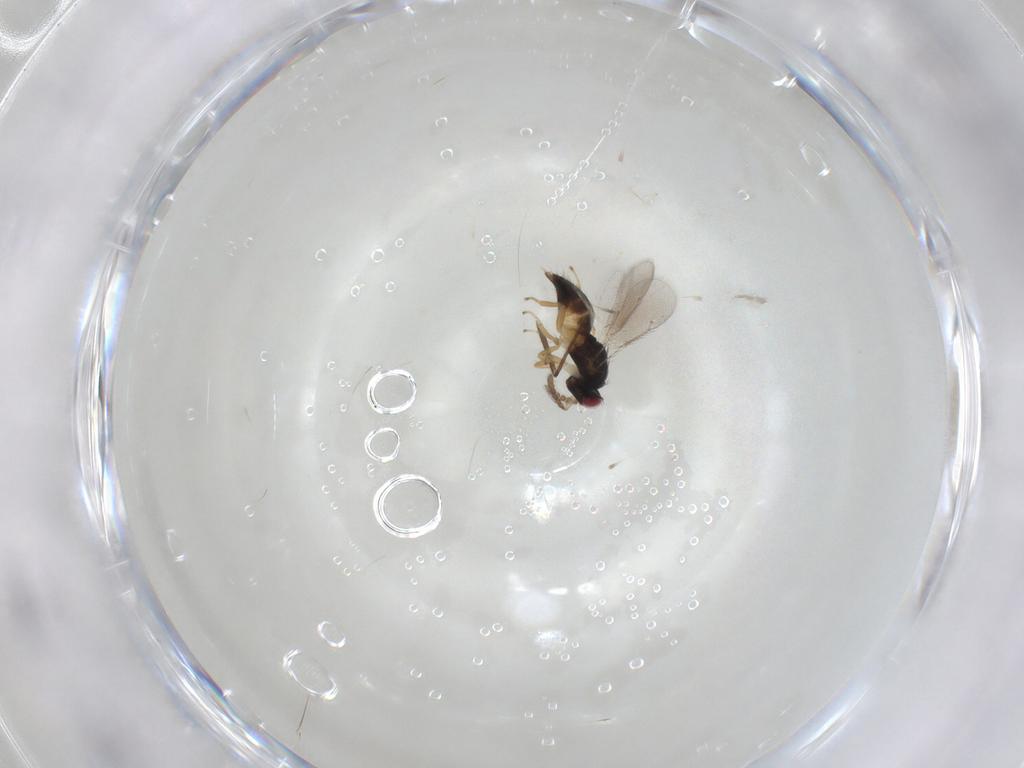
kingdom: Animalia
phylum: Arthropoda
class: Insecta
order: Hymenoptera
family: Eulophidae
